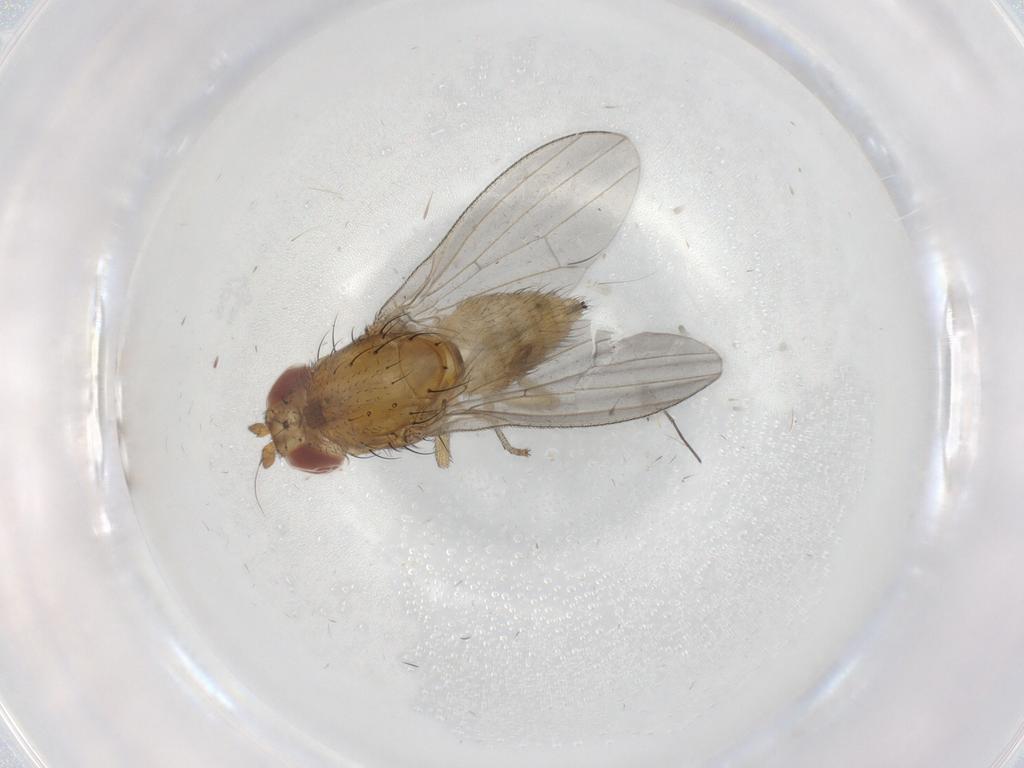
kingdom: Animalia
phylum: Arthropoda
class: Insecta
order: Diptera
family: Lauxaniidae
